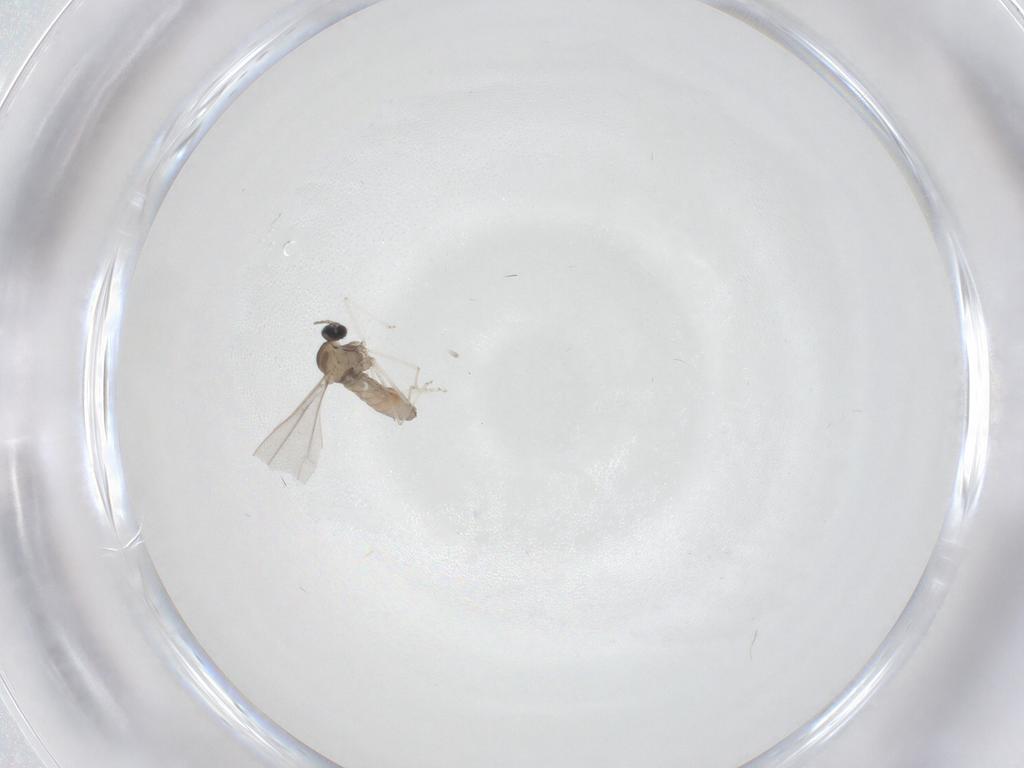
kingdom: Animalia
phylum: Arthropoda
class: Insecta
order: Diptera
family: Cecidomyiidae
